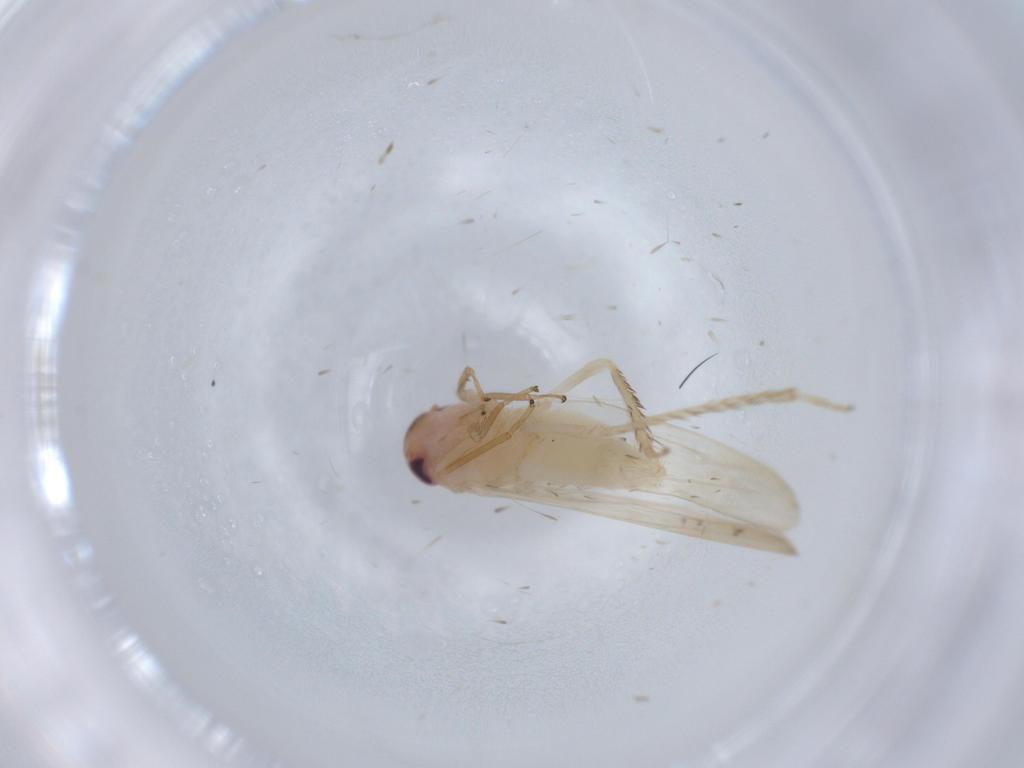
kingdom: Animalia
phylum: Arthropoda
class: Insecta
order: Hemiptera
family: Cicadellidae
